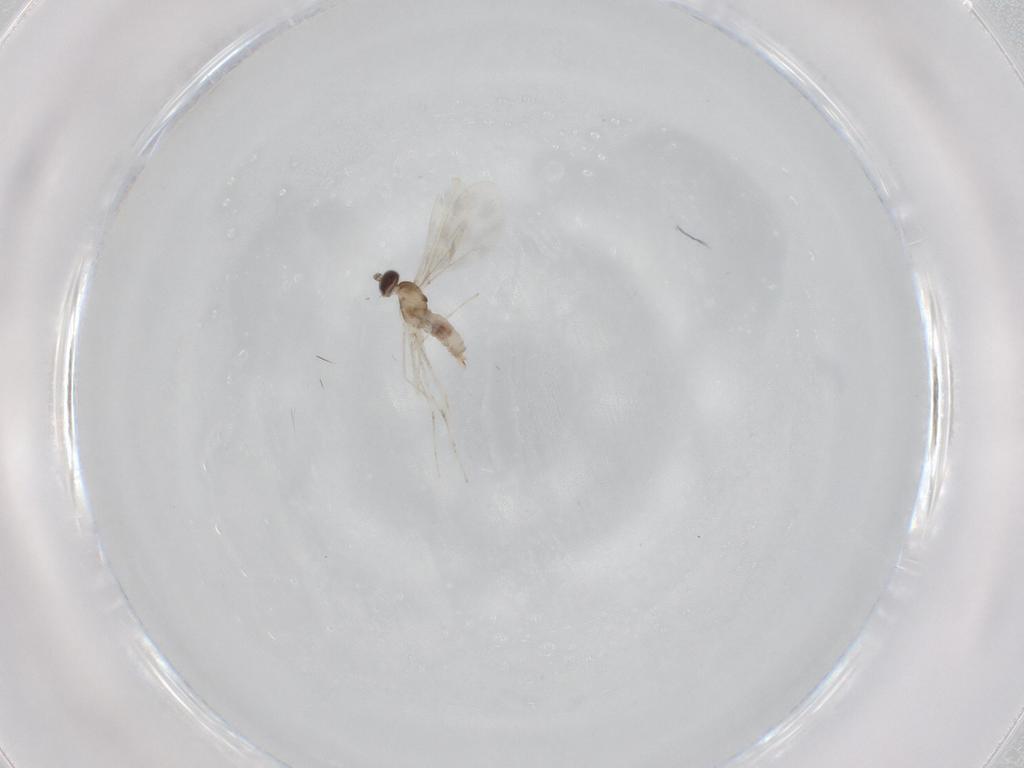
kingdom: Animalia
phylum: Arthropoda
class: Insecta
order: Diptera
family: Cecidomyiidae
